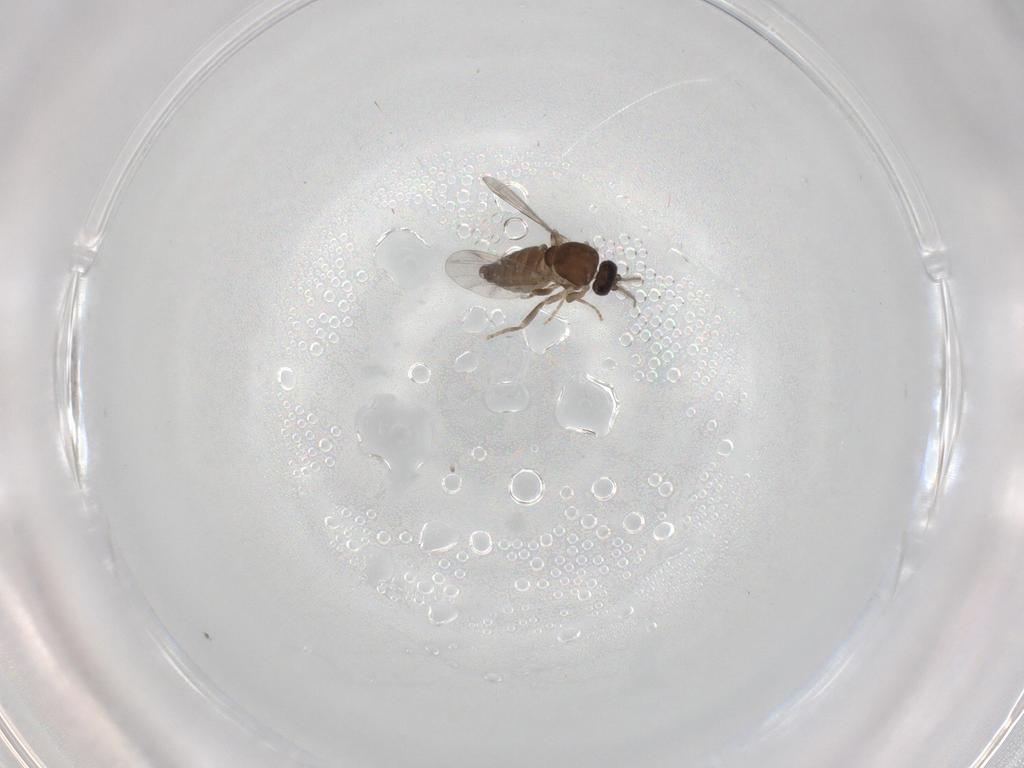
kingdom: Animalia
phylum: Arthropoda
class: Insecta
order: Diptera
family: Ceratopogonidae
